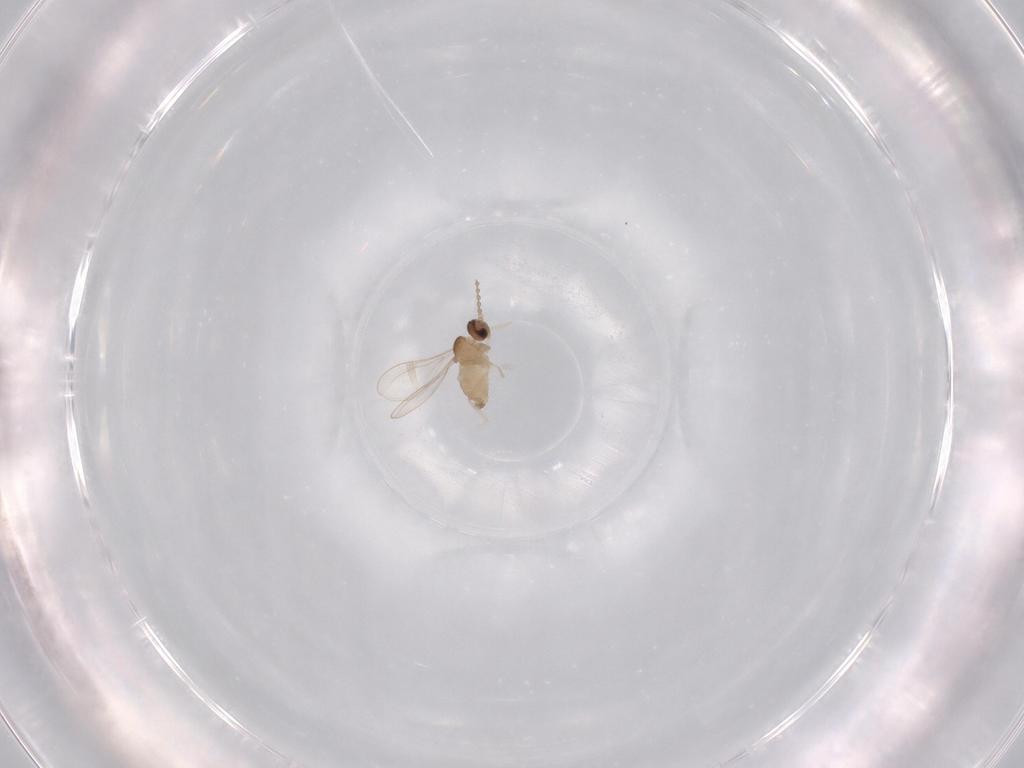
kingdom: Animalia
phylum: Arthropoda
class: Insecta
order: Diptera
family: Cecidomyiidae
